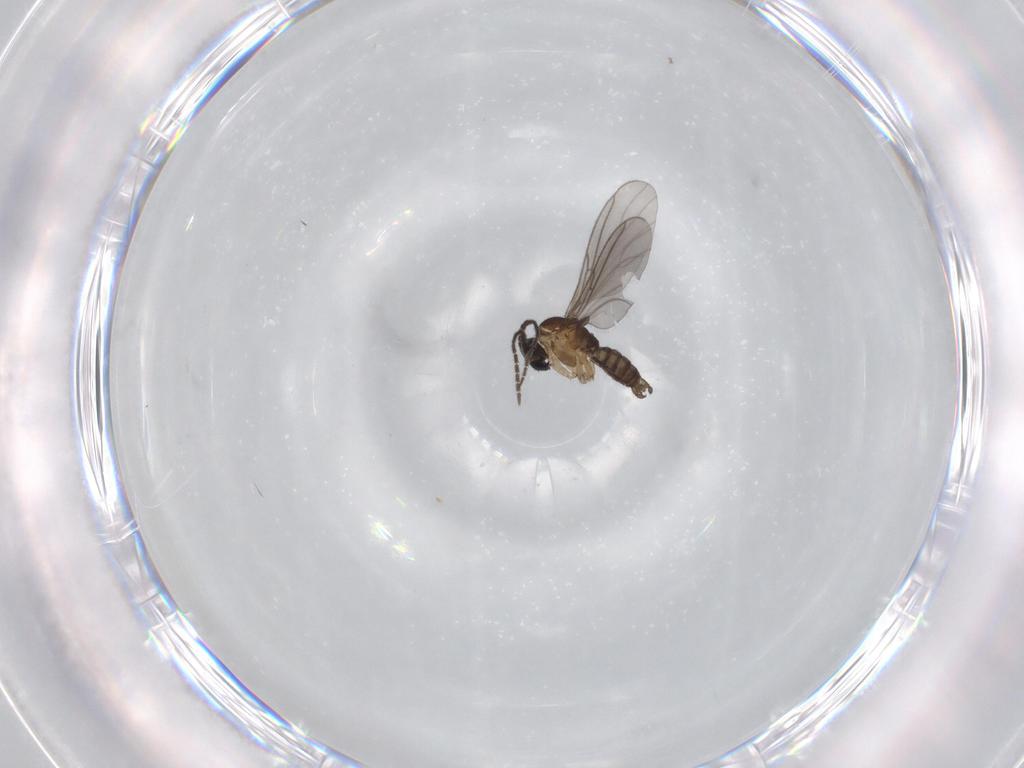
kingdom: Animalia
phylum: Arthropoda
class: Insecta
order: Diptera
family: Sciaridae
